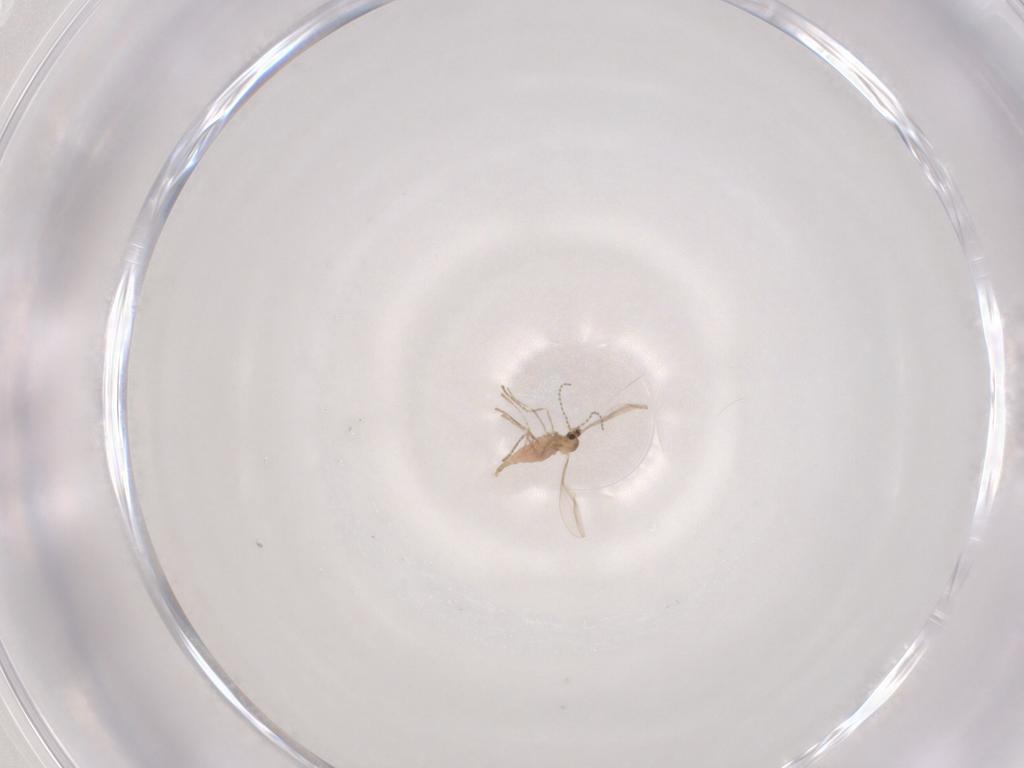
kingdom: Animalia
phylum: Arthropoda
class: Insecta
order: Diptera
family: Cecidomyiidae
